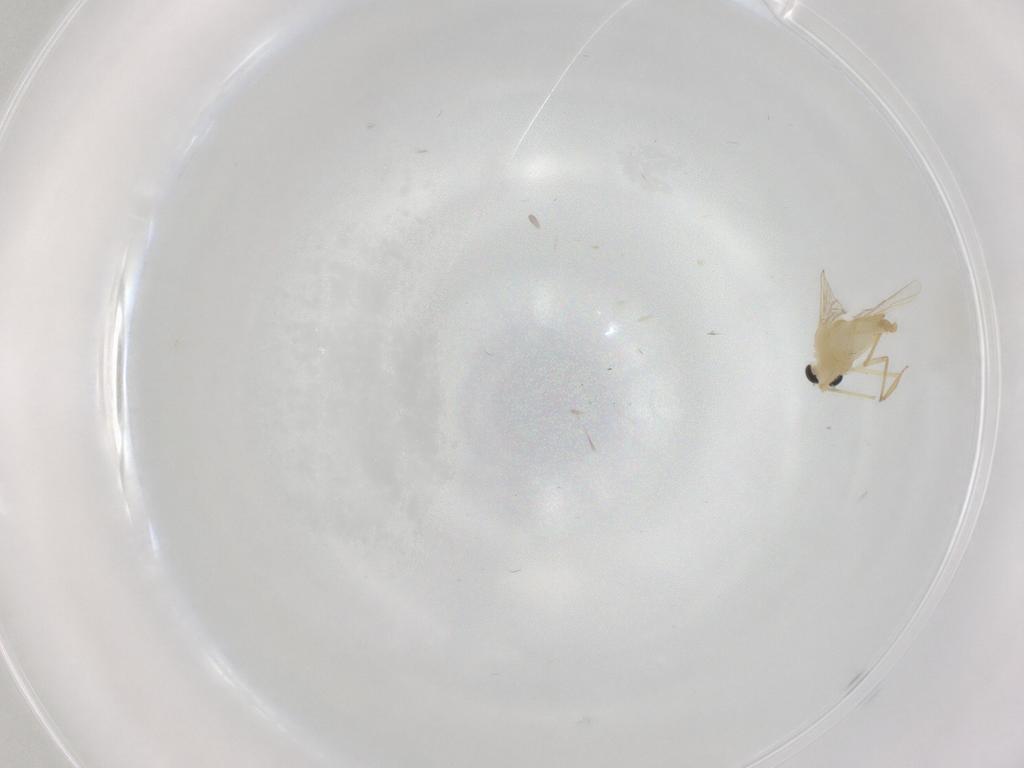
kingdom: Animalia
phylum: Arthropoda
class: Insecta
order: Diptera
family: Chironomidae
